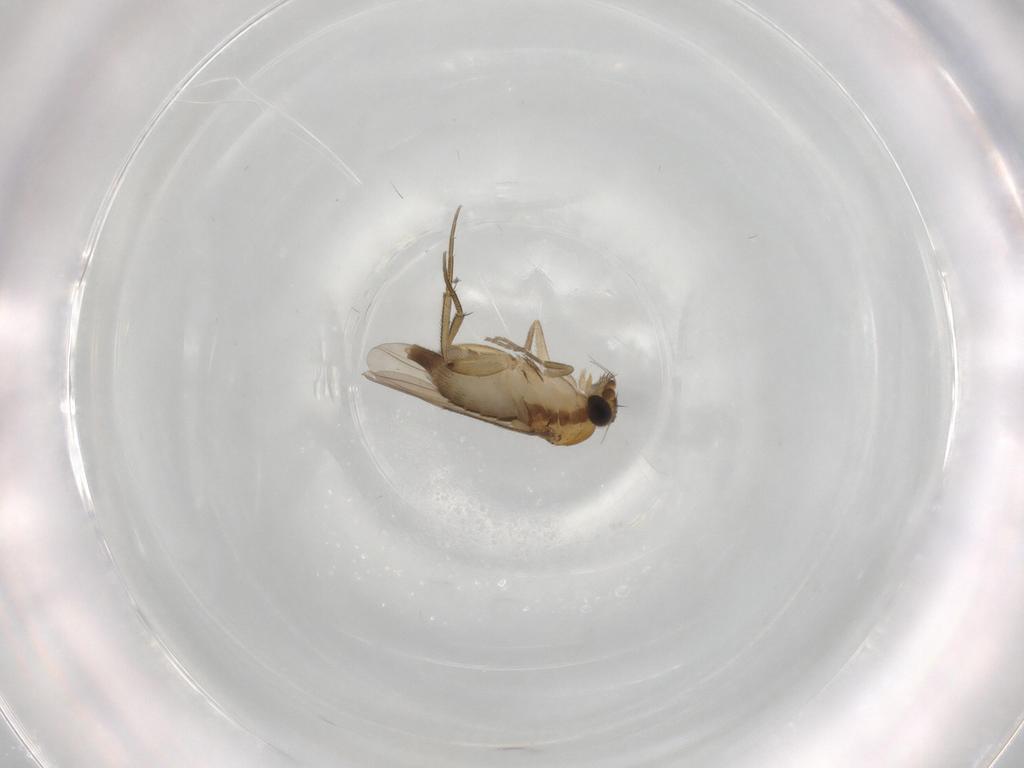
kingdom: Animalia
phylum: Arthropoda
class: Insecta
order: Diptera
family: Phoridae
